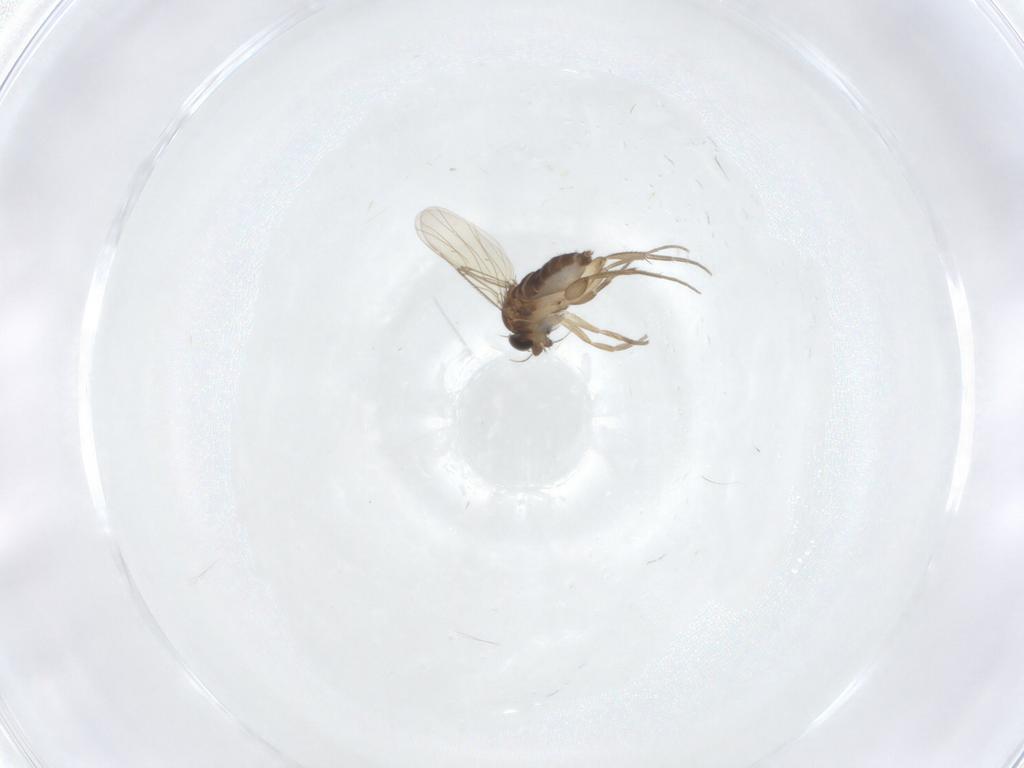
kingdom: Animalia
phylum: Arthropoda
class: Insecta
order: Diptera
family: Phoridae
